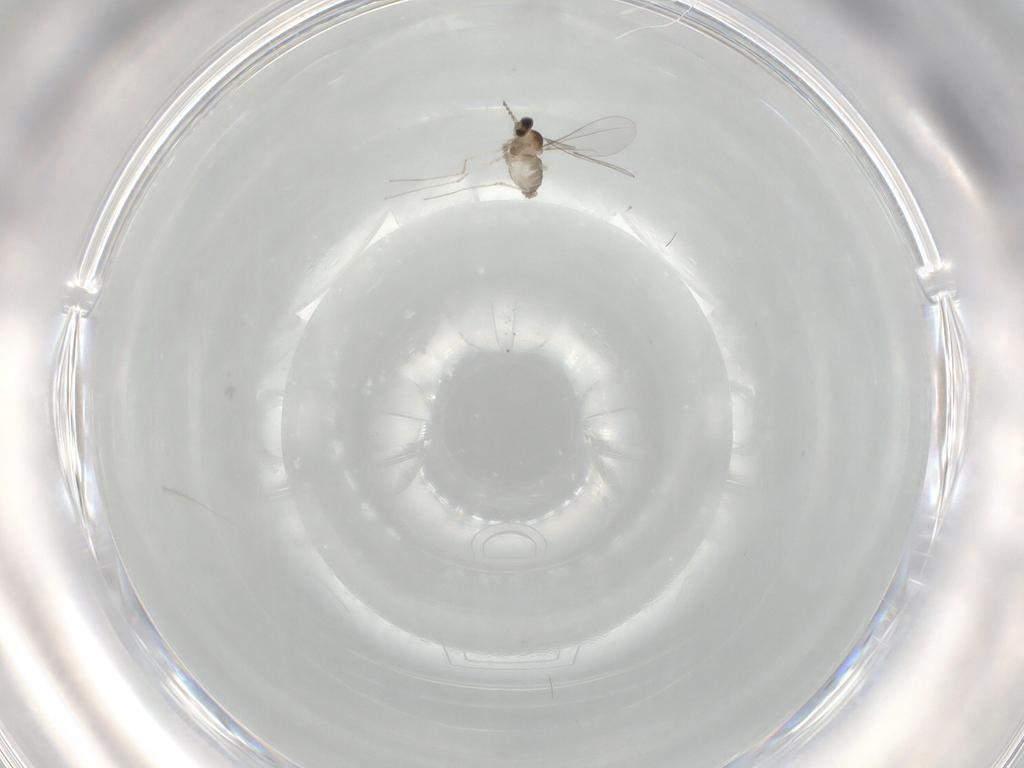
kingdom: Animalia
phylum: Arthropoda
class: Insecta
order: Diptera
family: Cecidomyiidae
